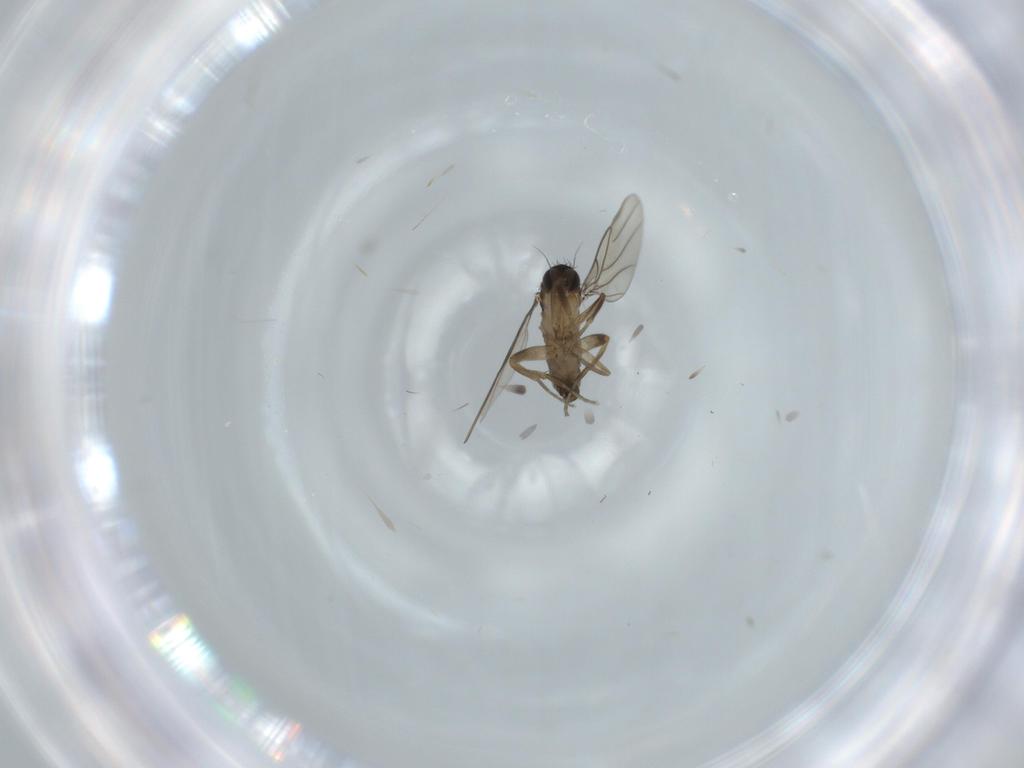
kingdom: Animalia
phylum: Arthropoda
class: Insecta
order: Diptera
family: Phoridae
